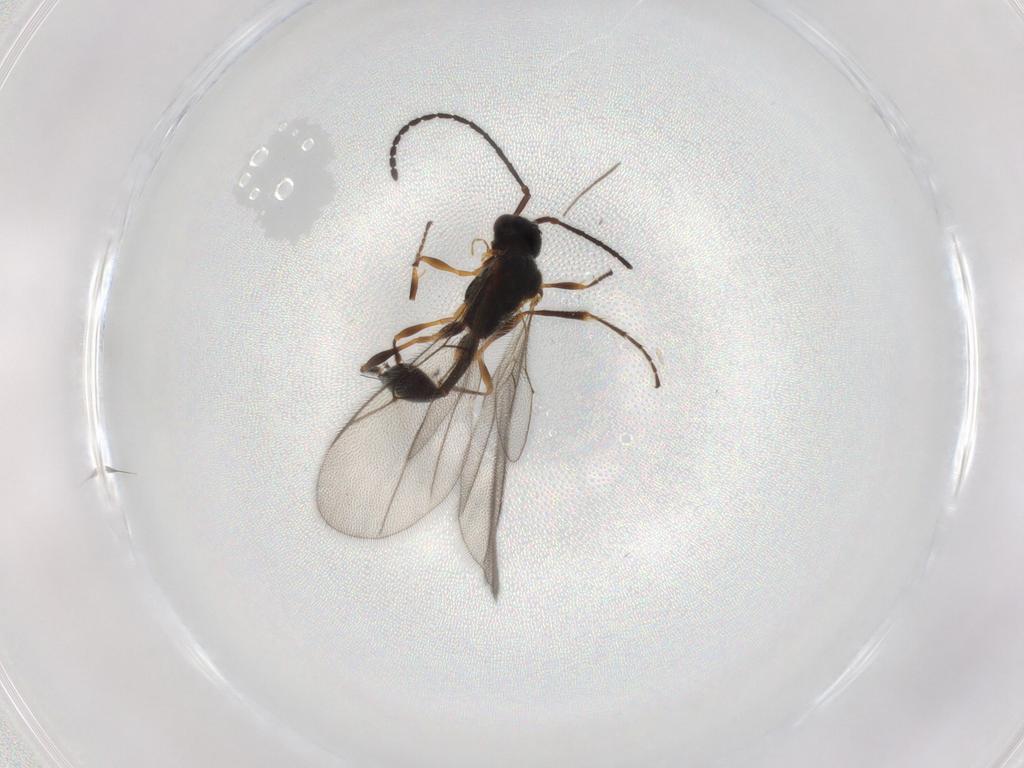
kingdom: Animalia
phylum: Arthropoda
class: Insecta
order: Hymenoptera
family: Diapriidae
